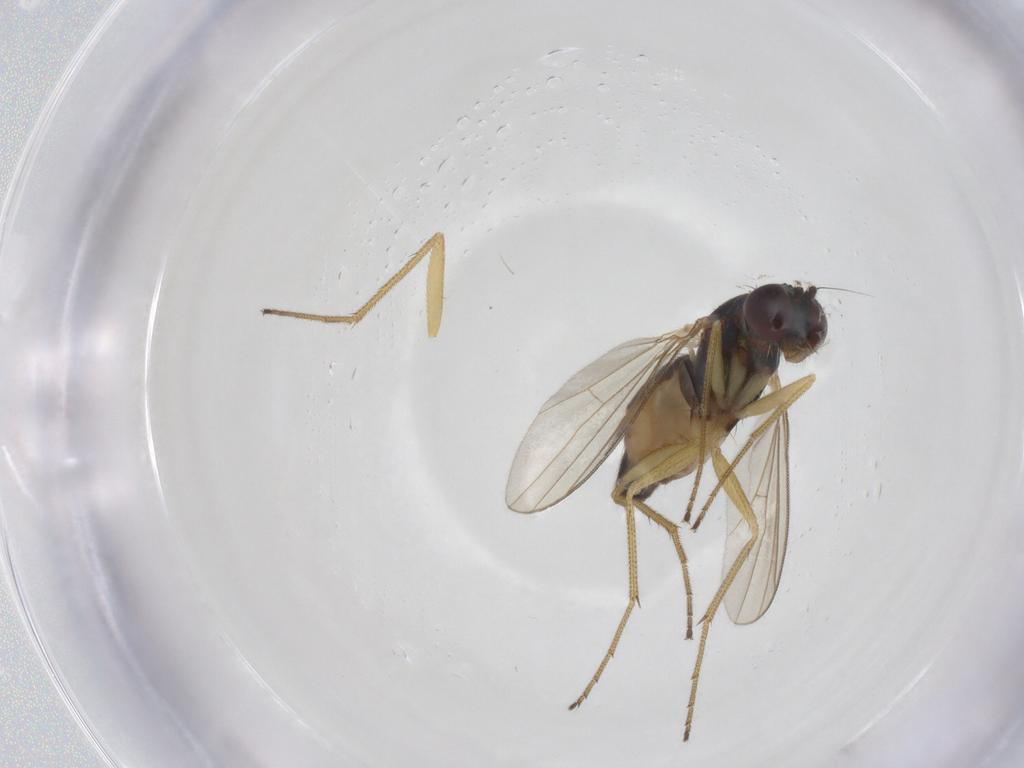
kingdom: Animalia
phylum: Arthropoda
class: Insecta
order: Diptera
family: Dolichopodidae
